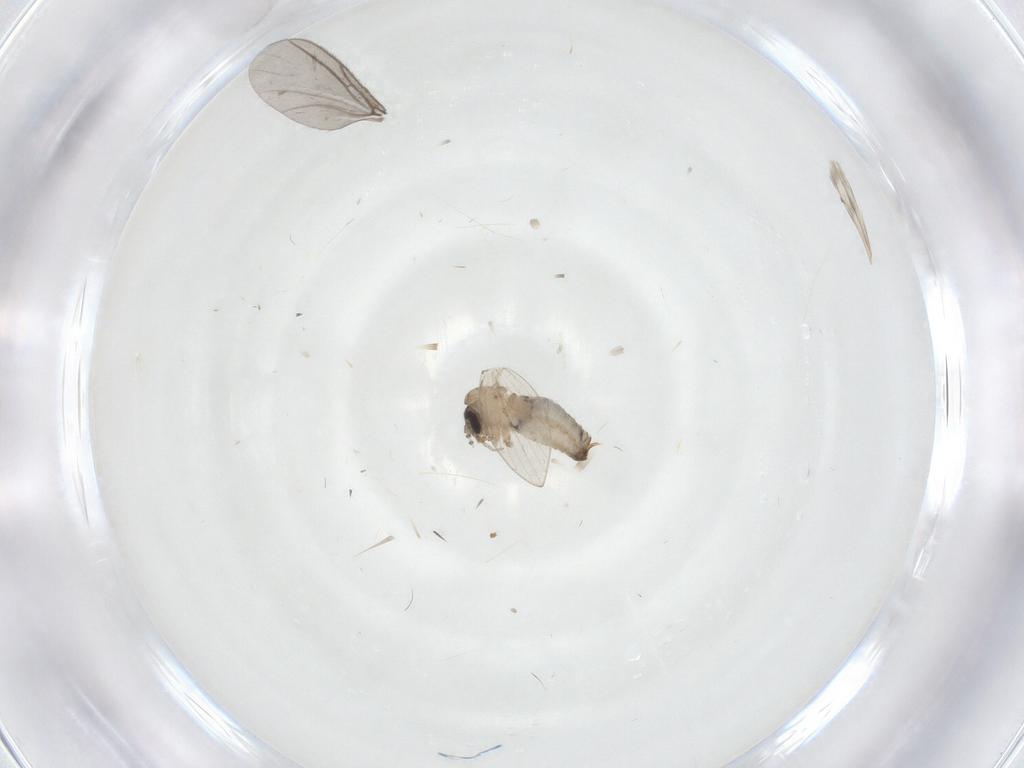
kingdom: Animalia
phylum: Arthropoda
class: Insecta
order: Diptera
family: Psychodidae
